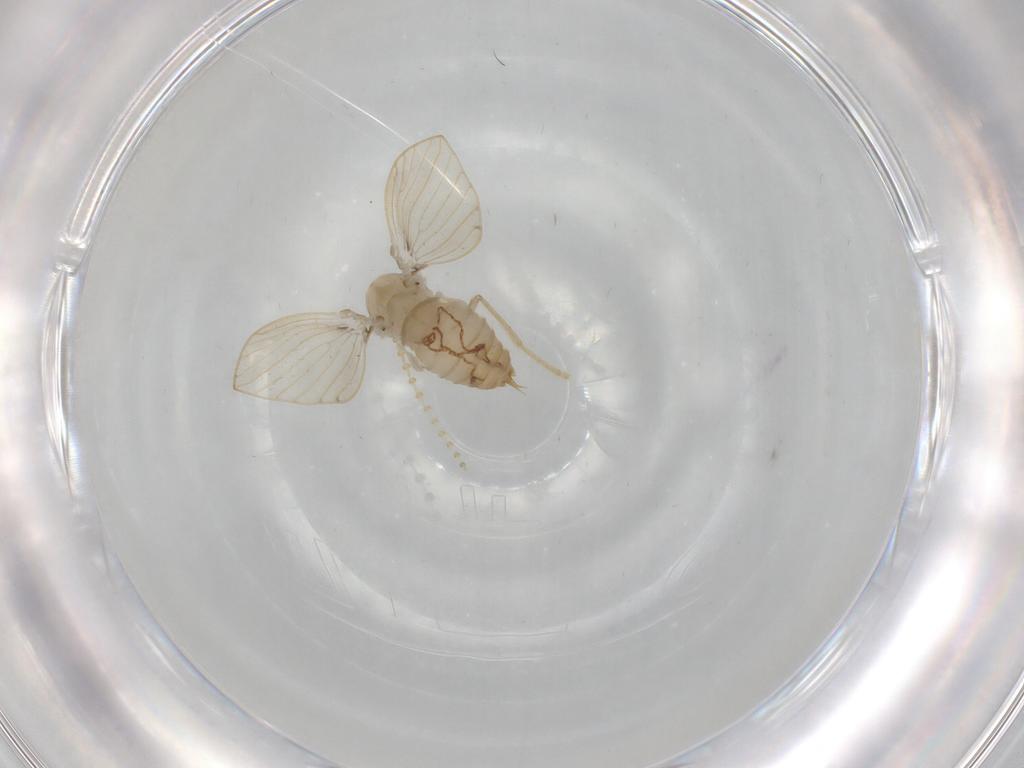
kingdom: Animalia
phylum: Arthropoda
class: Insecta
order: Diptera
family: Psychodidae
